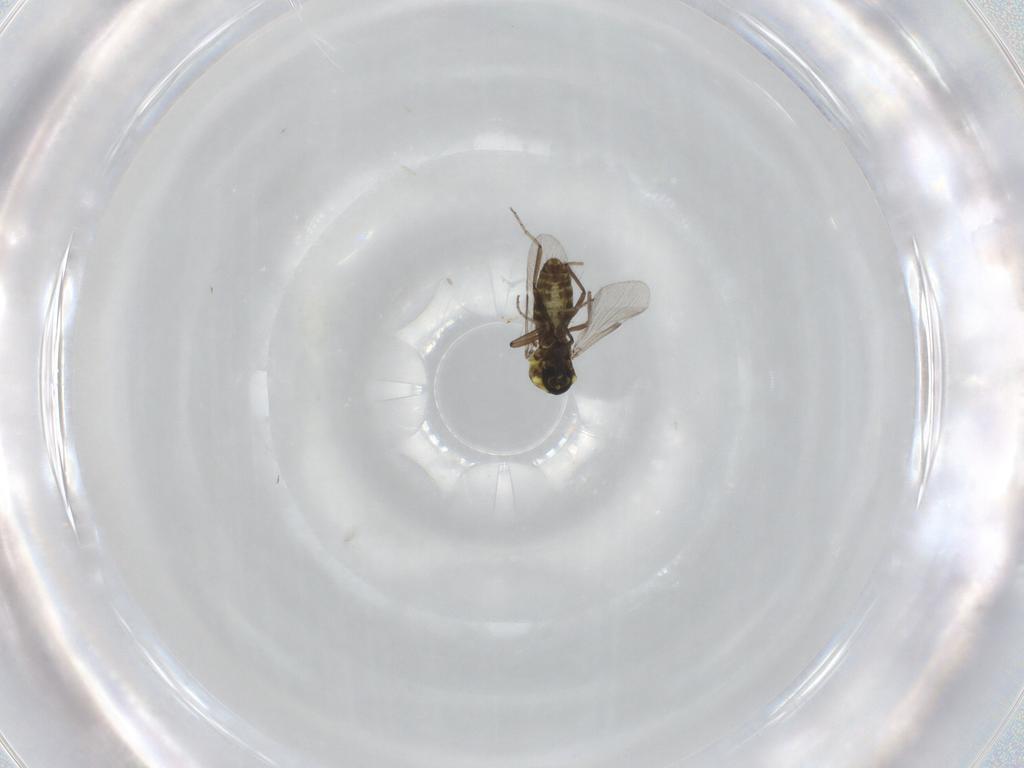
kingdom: Animalia
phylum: Arthropoda
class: Insecta
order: Diptera
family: Ceratopogonidae
